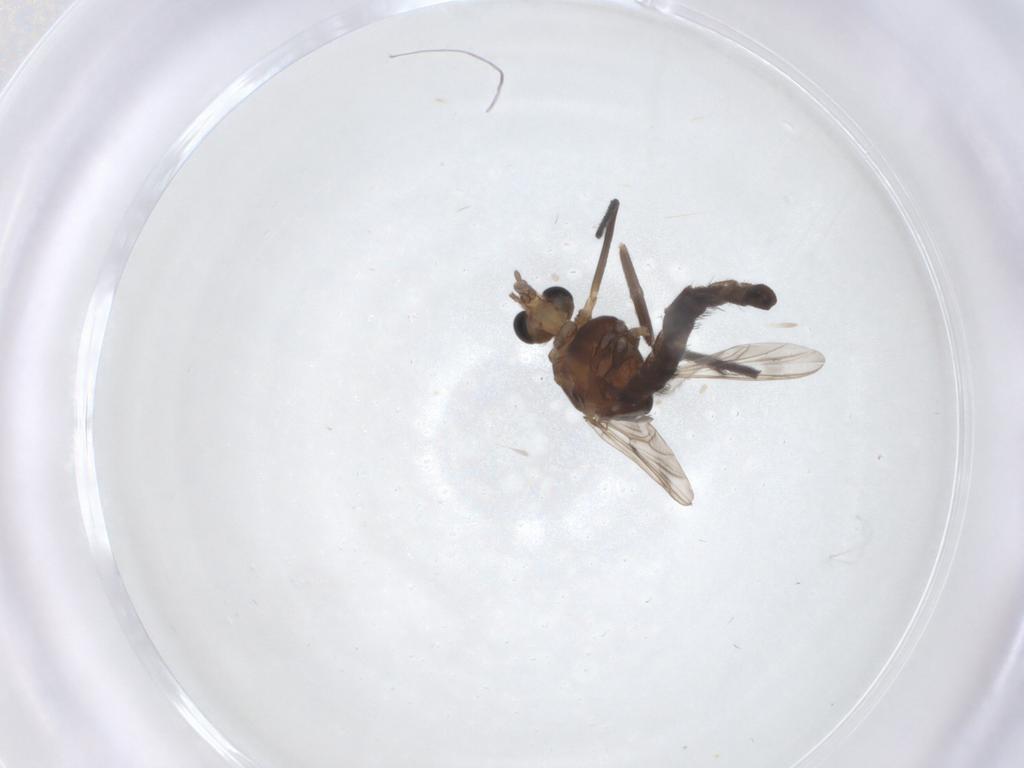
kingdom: Animalia
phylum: Arthropoda
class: Insecta
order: Diptera
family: Chironomidae
